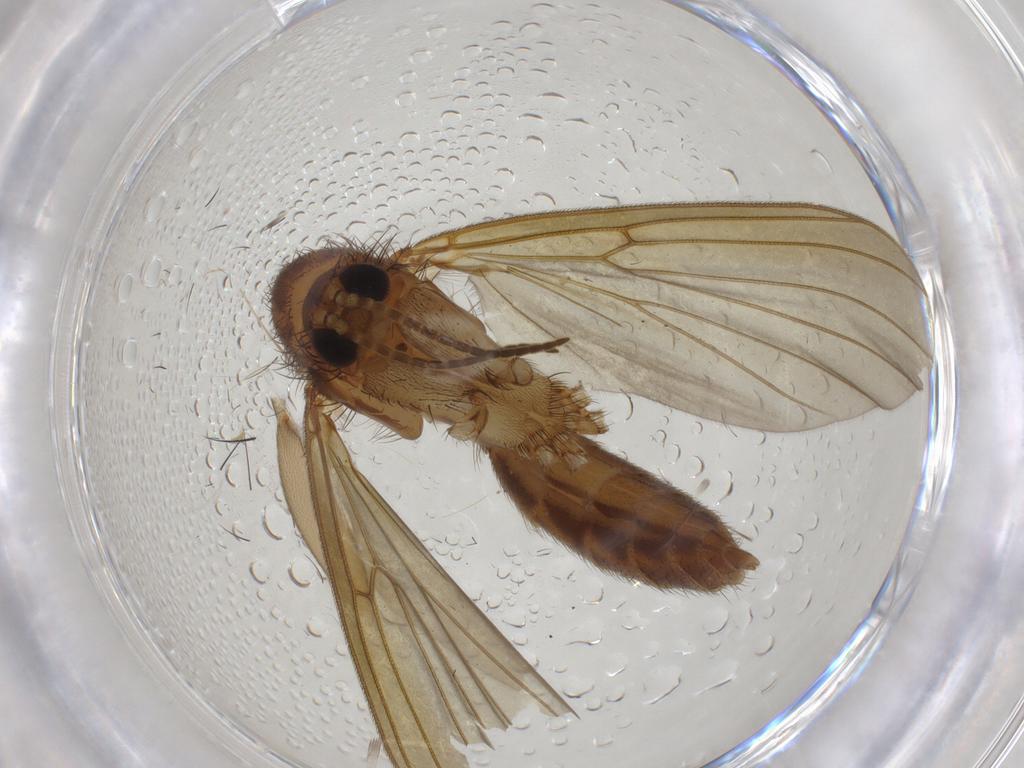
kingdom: Animalia
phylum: Arthropoda
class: Insecta
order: Diptera
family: Mycetophilidae
